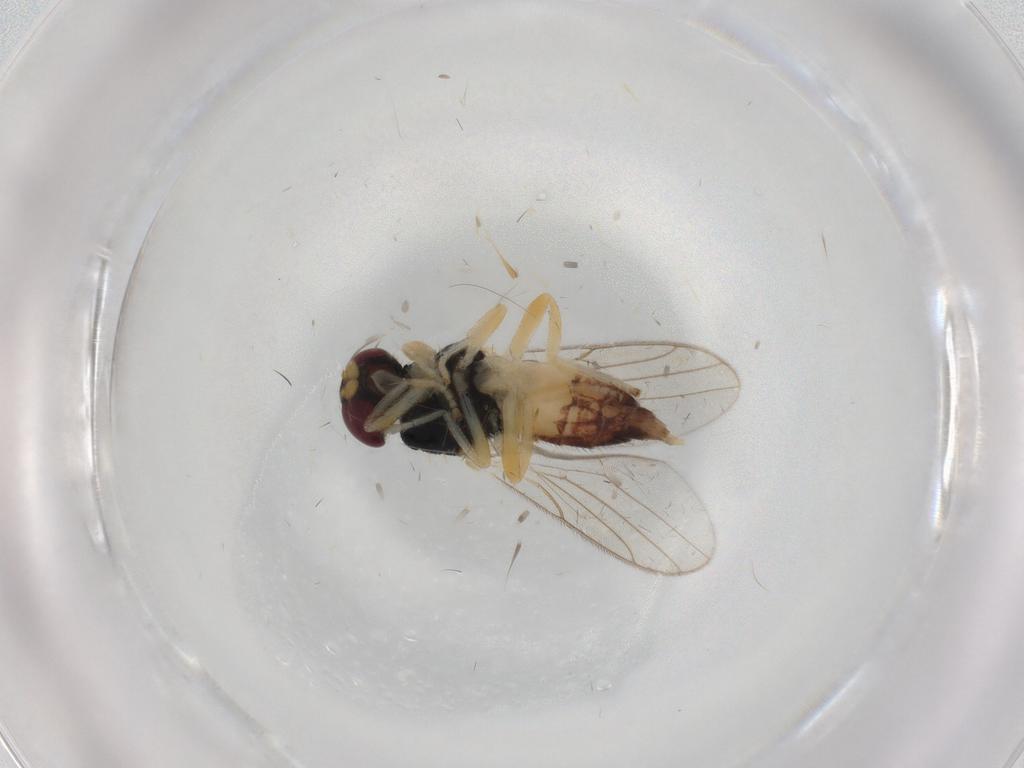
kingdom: Animalia
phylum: Arthropoda
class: Insecta
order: Diptera
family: Chloropidae
